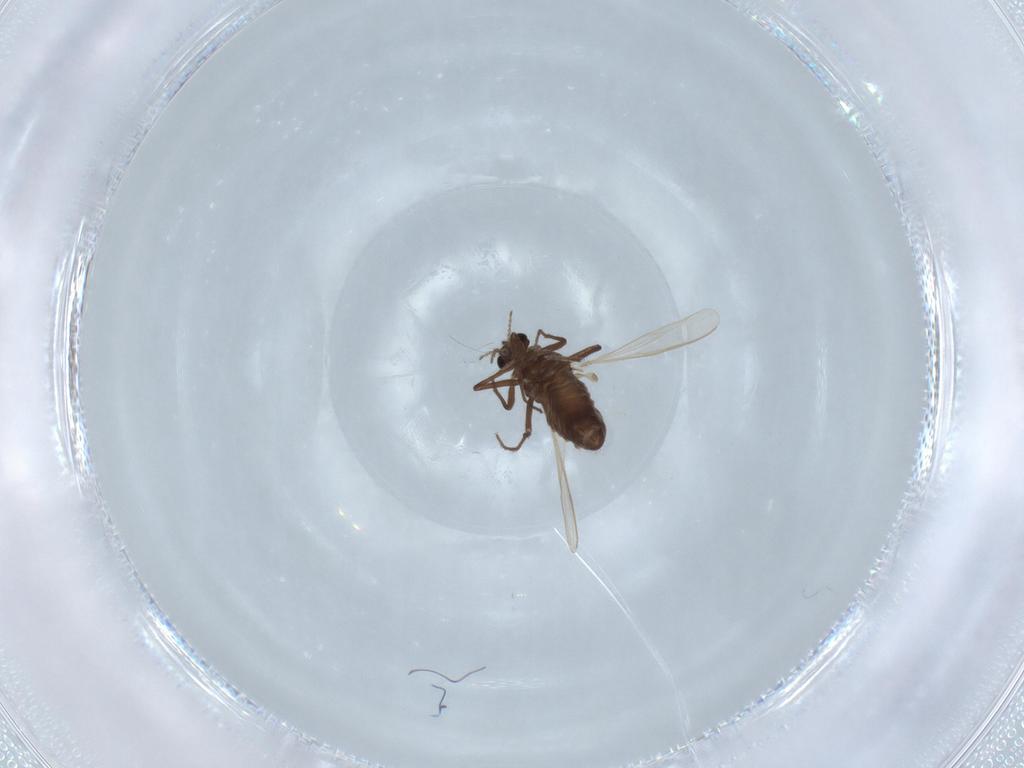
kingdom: Animalia
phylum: Arthropoda
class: Insecta
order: Diptera
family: Chironomidae
